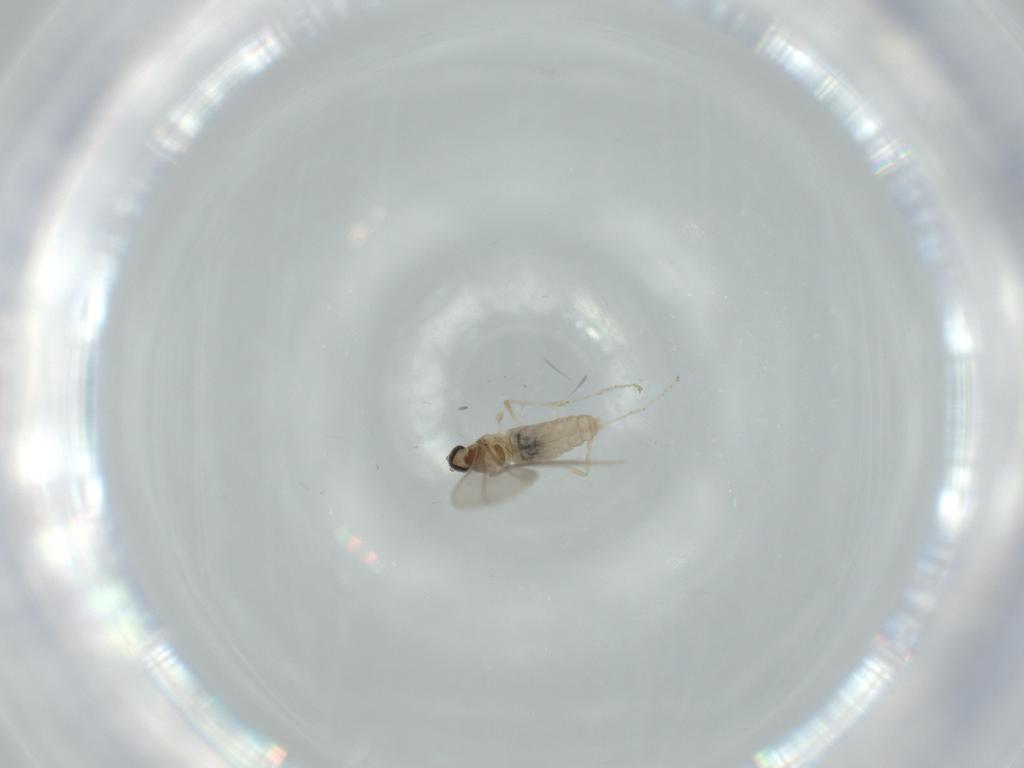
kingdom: Animalia
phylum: Arthropoda
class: Insecta
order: Diptera
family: Cecidomyiidae
